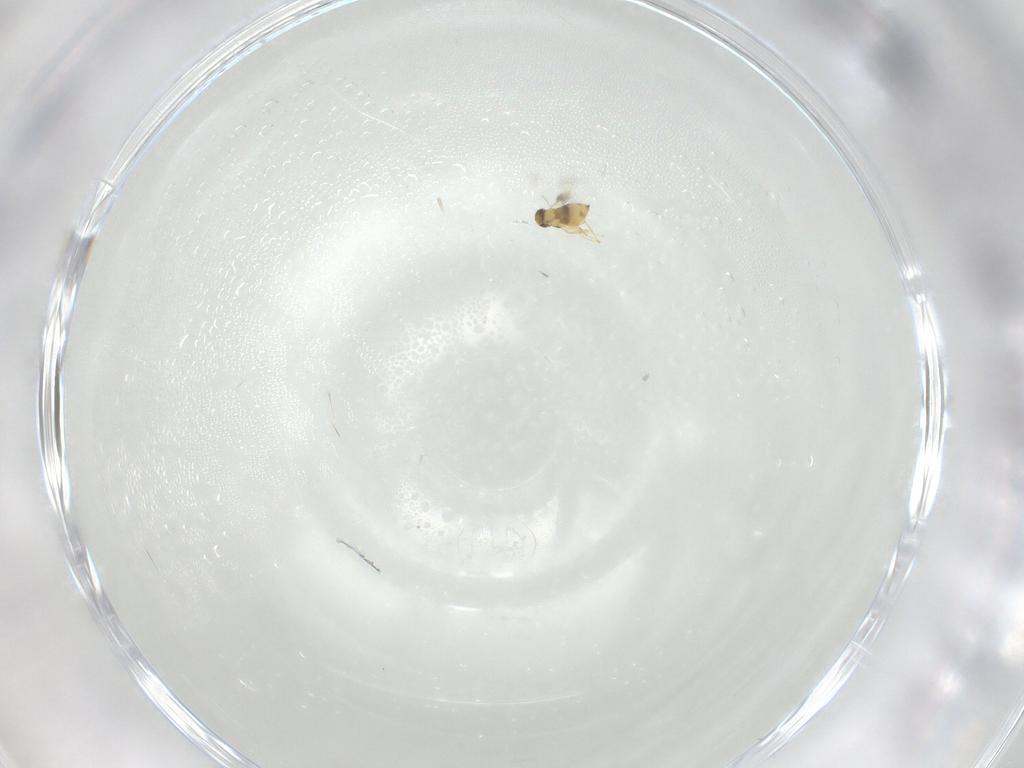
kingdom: Animalia
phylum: Arthropoda
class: Insecta
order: Hymenoptera
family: Signiphoridae
